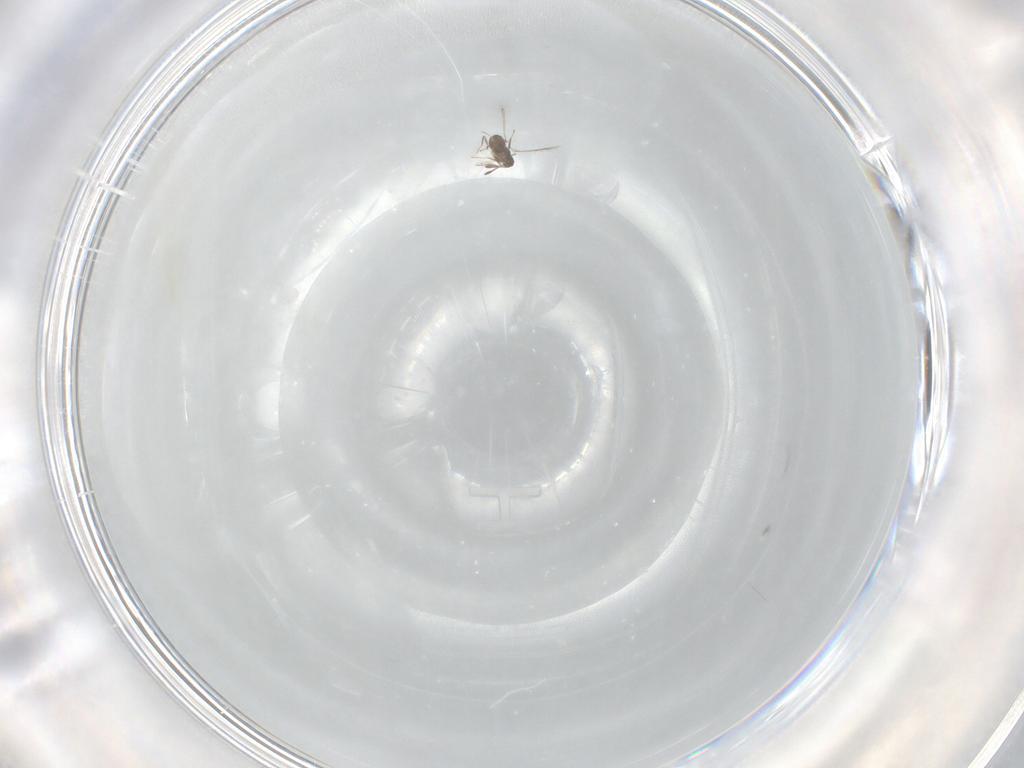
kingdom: Animalia
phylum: Arthropoda
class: Insecta
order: Hymenoptera
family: Platygastridae
